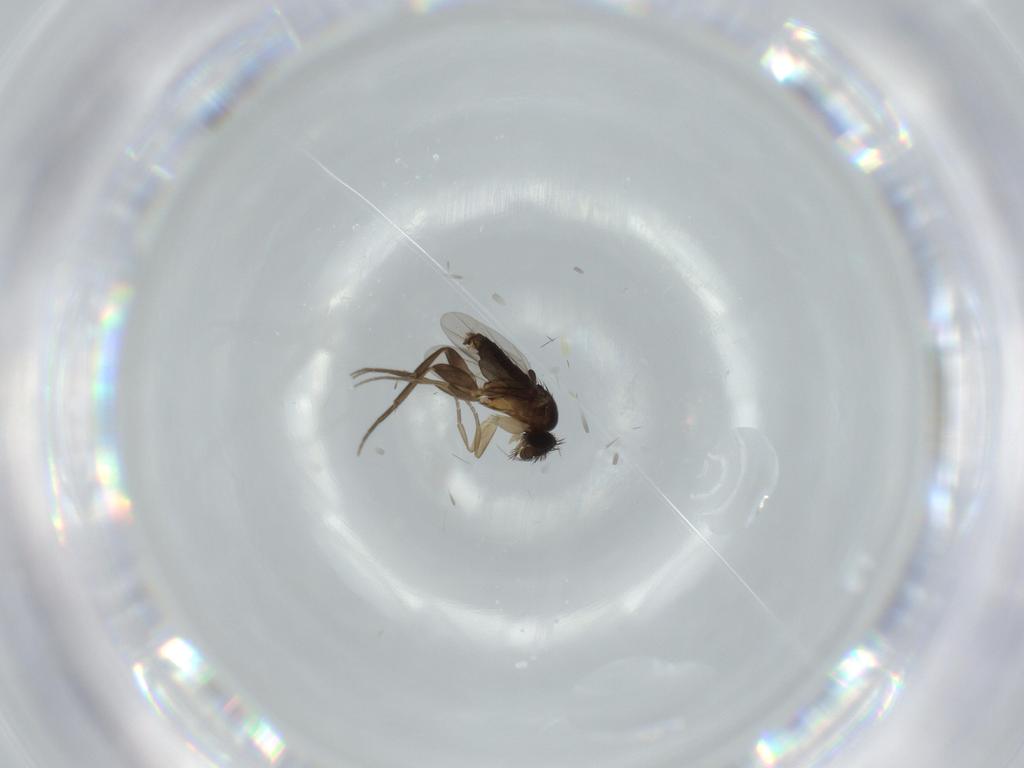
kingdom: Animalia
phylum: Arthropoda
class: Insecta
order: Diptera
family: Phoridae
